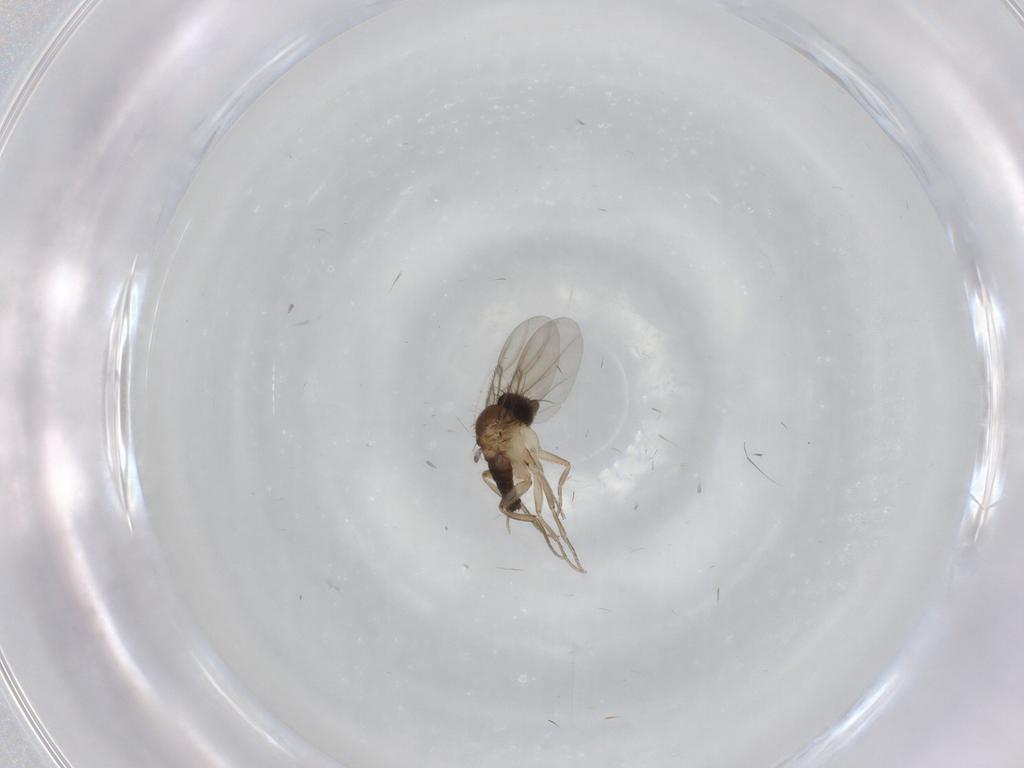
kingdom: Animalia
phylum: Arthropoda
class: Insecta
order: Diptera
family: Phoridae
